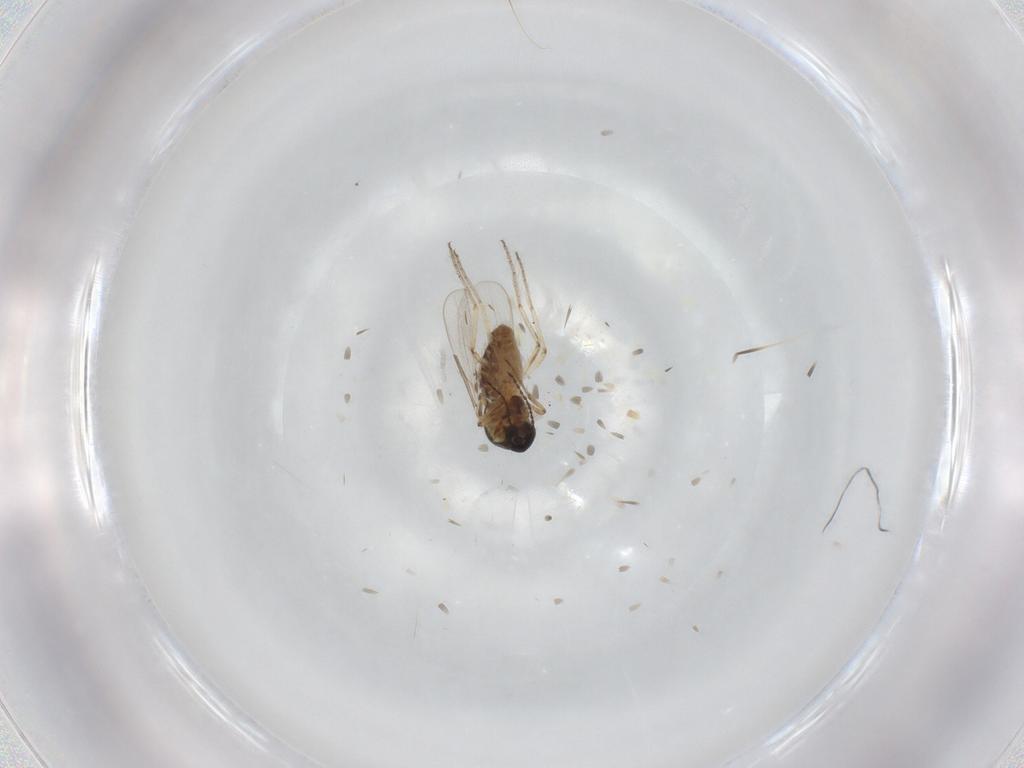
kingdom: Animalia
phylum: Arthropoda
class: Insecta
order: Diptera
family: Ceratopogonidae
